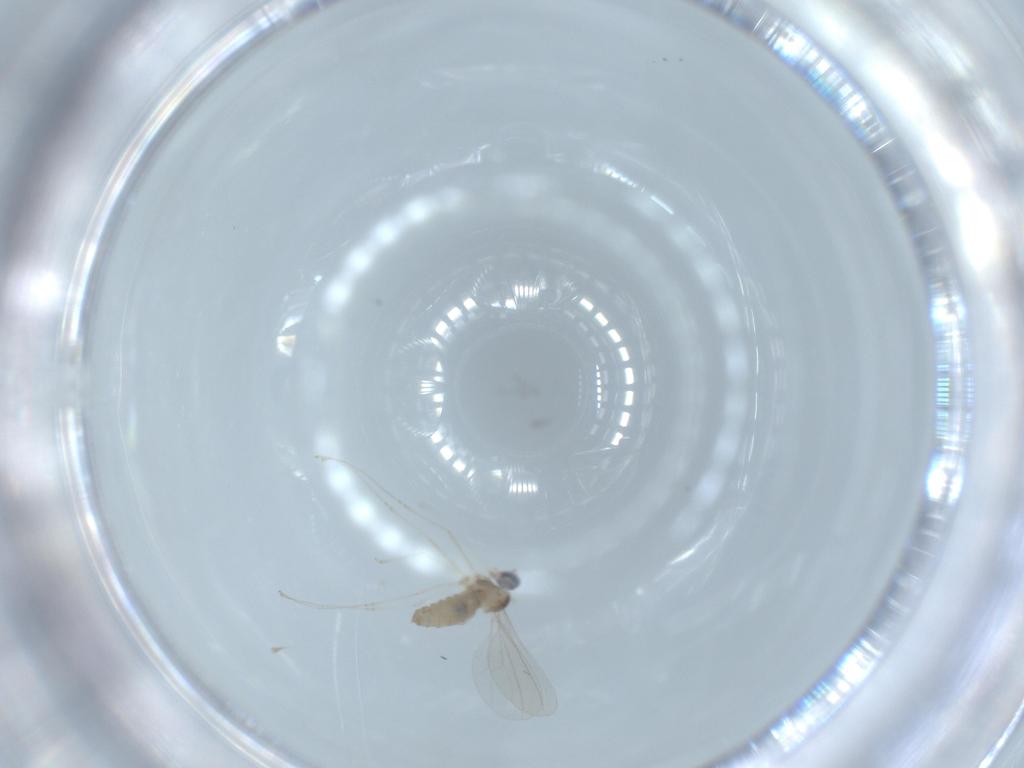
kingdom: Animalia
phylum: Arthropoda
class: Insecta
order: Diptera
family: Cecidomyiidae
